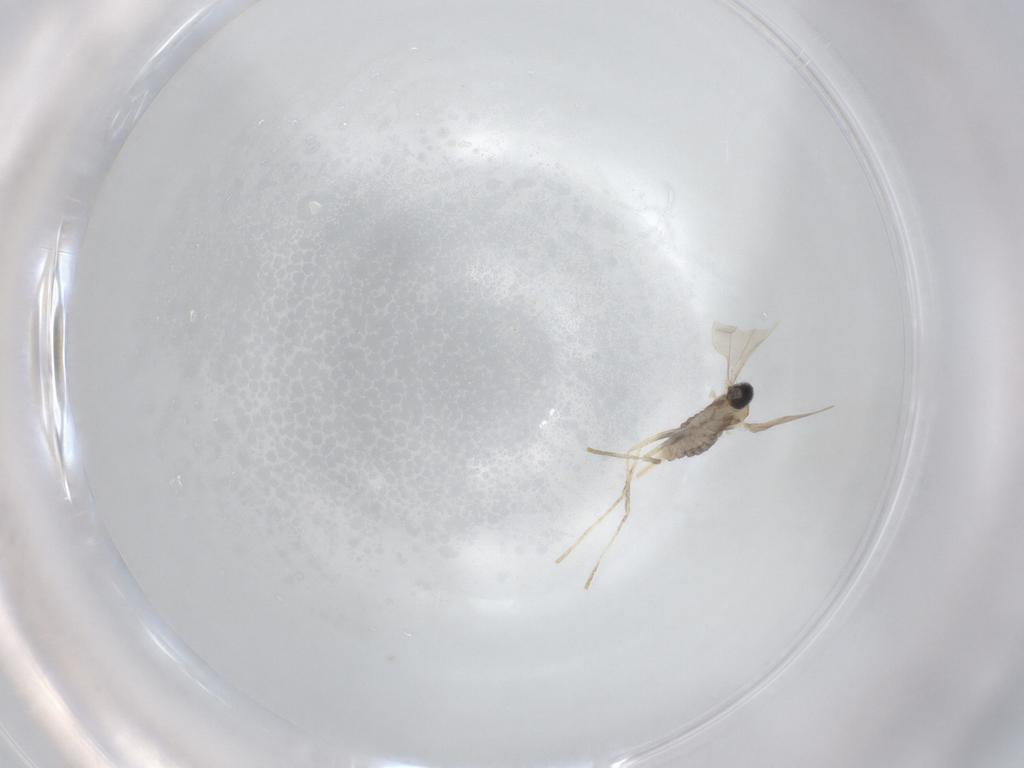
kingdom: Animalia
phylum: Arthropoda
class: Insecta
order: Diptera
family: Cecidomyiidae
